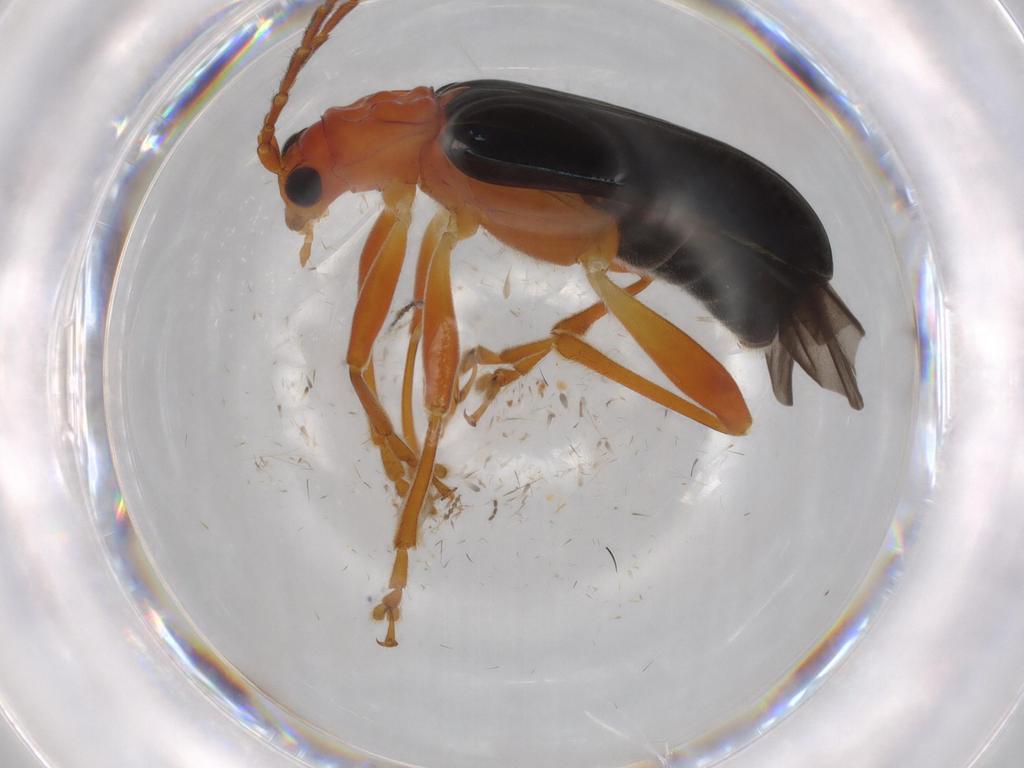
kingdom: Animalia
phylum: Arthropoda
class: Insecta
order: Coleoptera
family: Chrysomelidae
